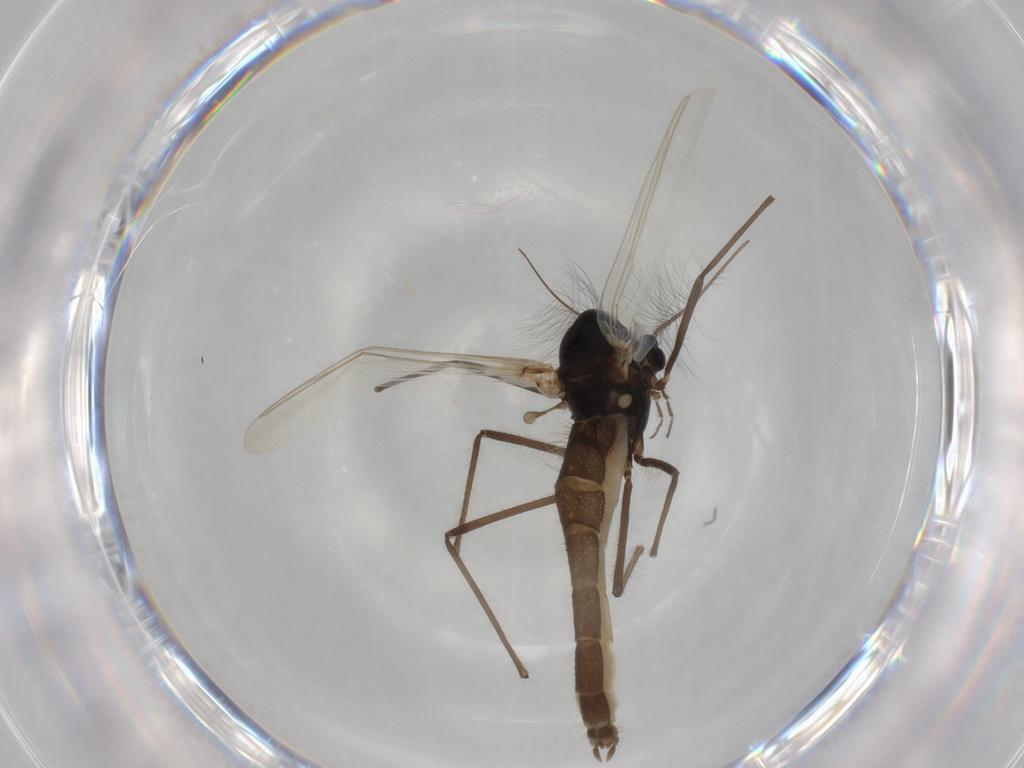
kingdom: Animalia
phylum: Arthropoda
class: Insecta
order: Diptera
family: Chironomidae
